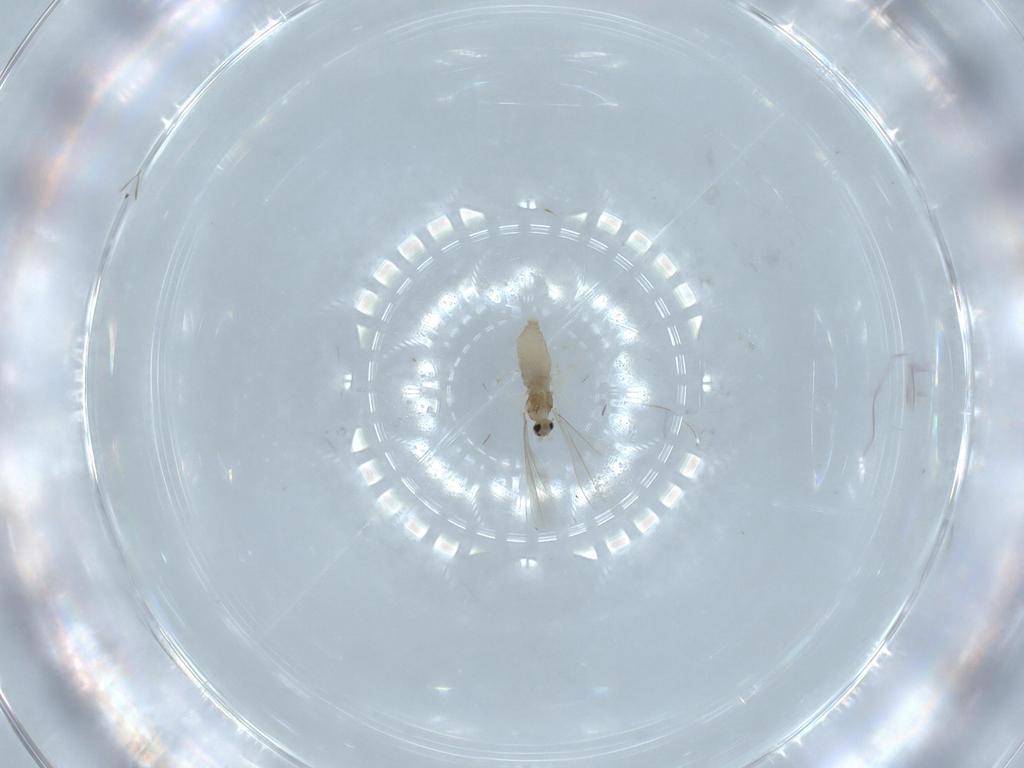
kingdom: Animalia
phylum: Arthropoda
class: Insecta
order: Diptera
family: Cecidomyiidae
